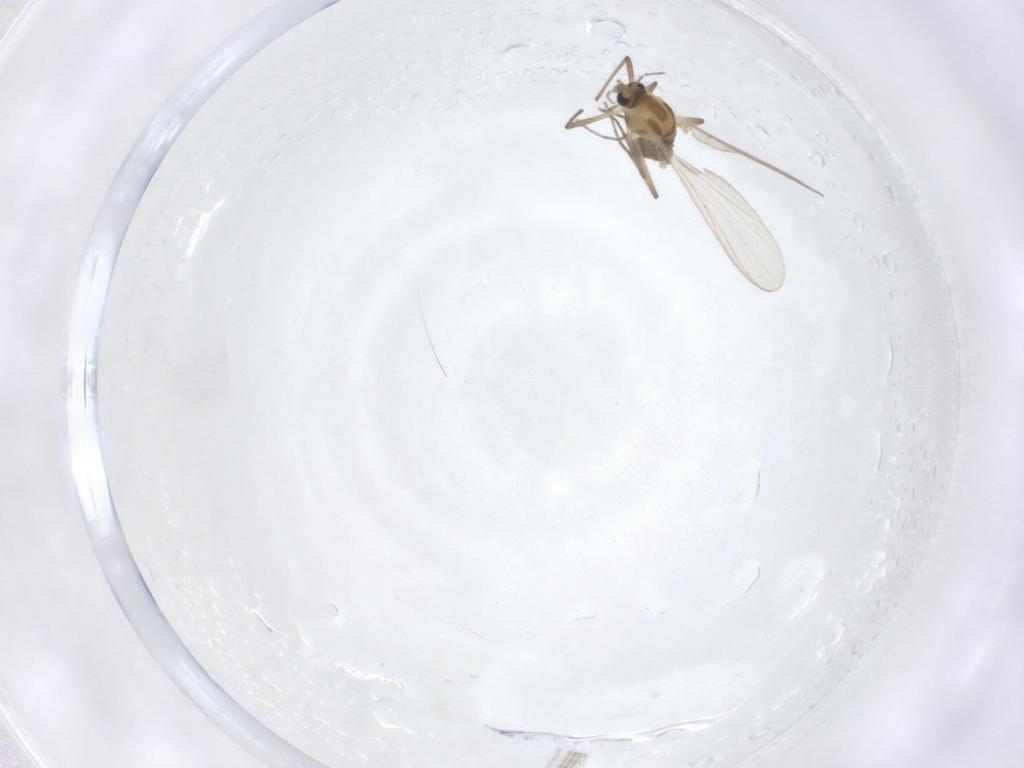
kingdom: Animalia
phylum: Arthropoda
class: Insecta
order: Diptera
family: Chironomidae
